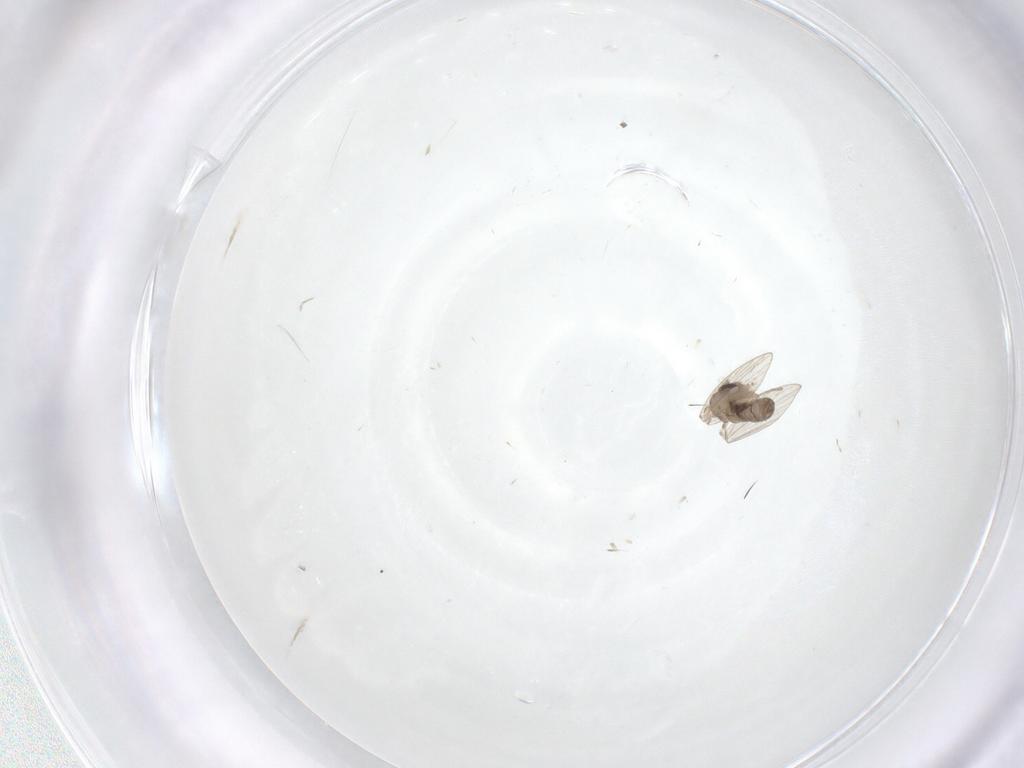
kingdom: Animalia
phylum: Arthropoda
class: Insecta
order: Diptera
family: Psychodidae
